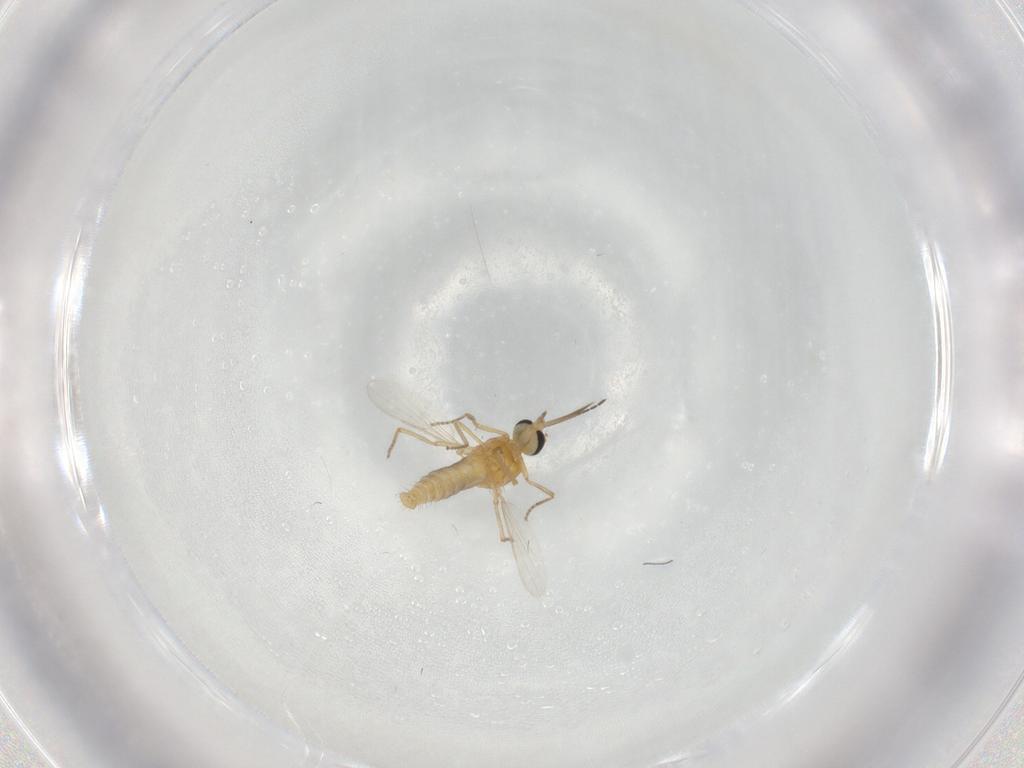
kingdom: Animalia
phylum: Arthropoda
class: Insecta
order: Diptera
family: Ceratopogonidae
